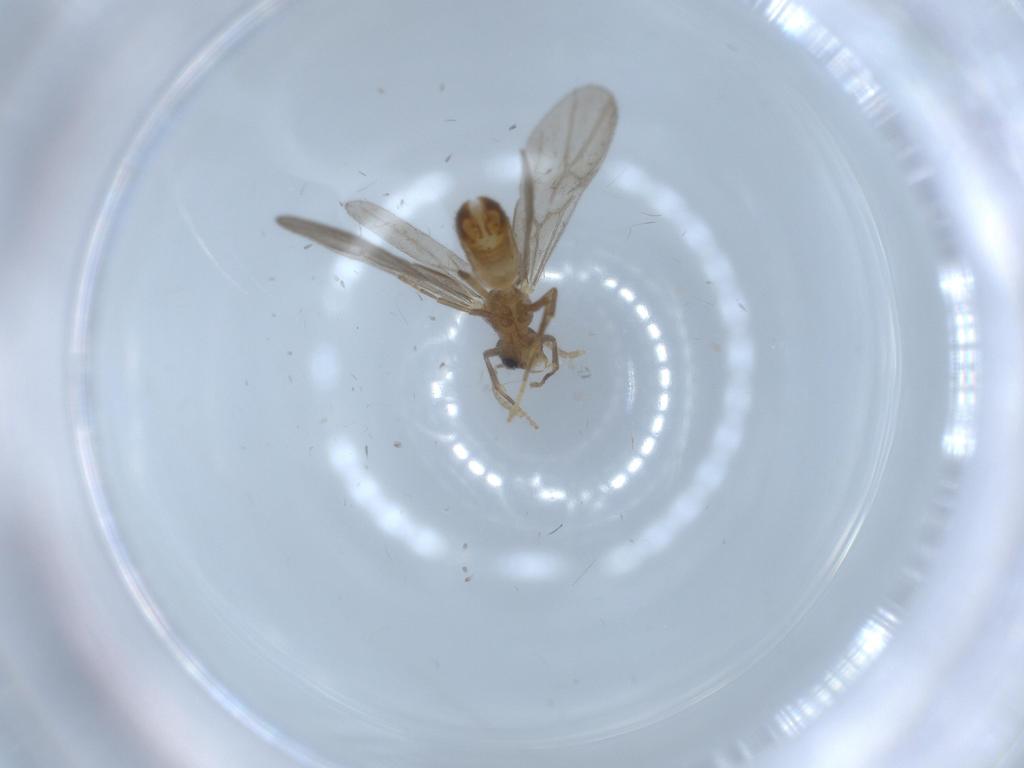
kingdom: Animalia
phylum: Arthropoda
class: Insecta
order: Hymenoptera
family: Formicidae
